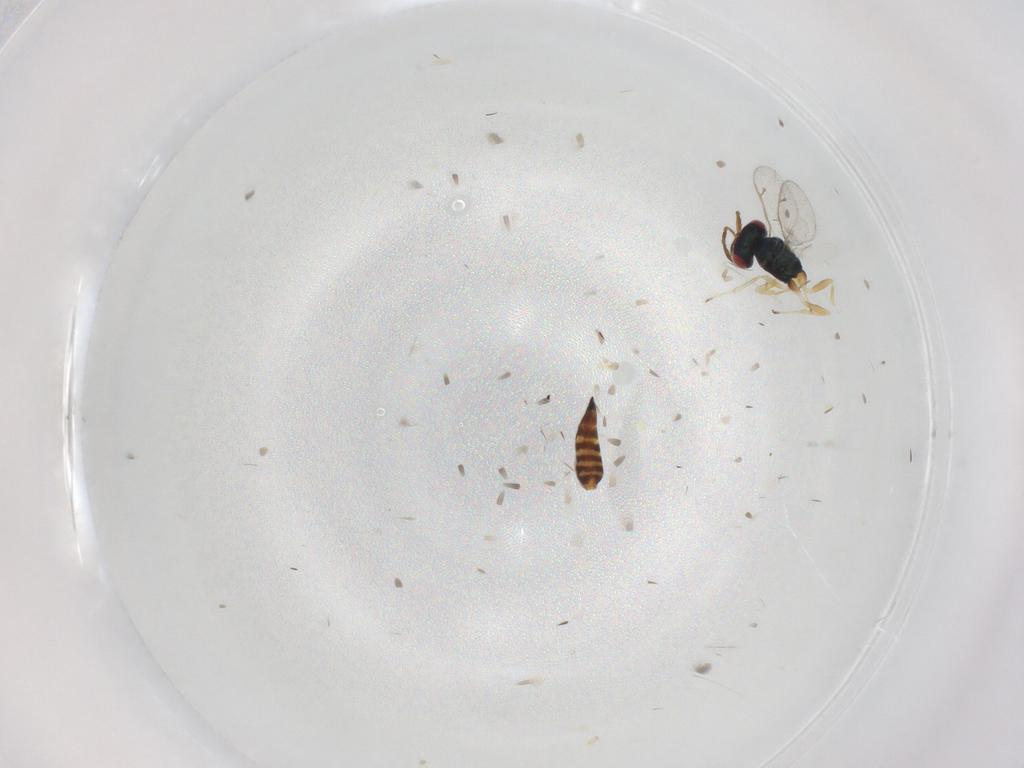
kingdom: Animalia
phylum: Arthropoda
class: Insecta
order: Hymenoptera
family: Pteromalidae
